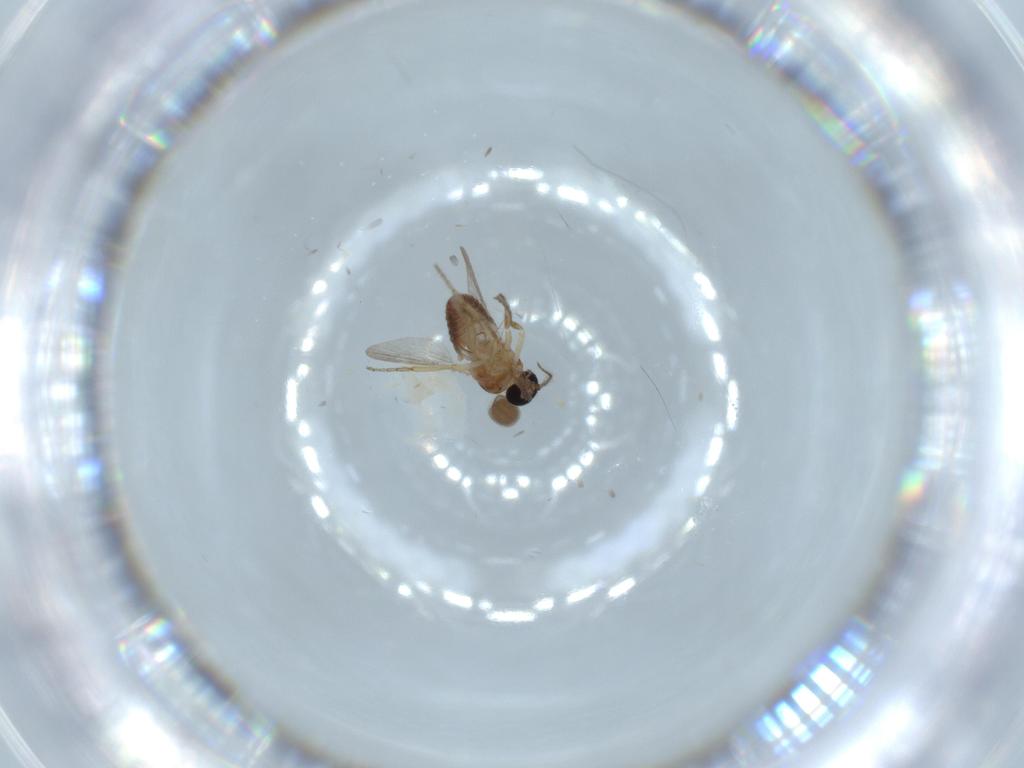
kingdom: Animalia
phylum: Arthropoda
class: Insecta
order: Diptera
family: Ceratopogonidae
